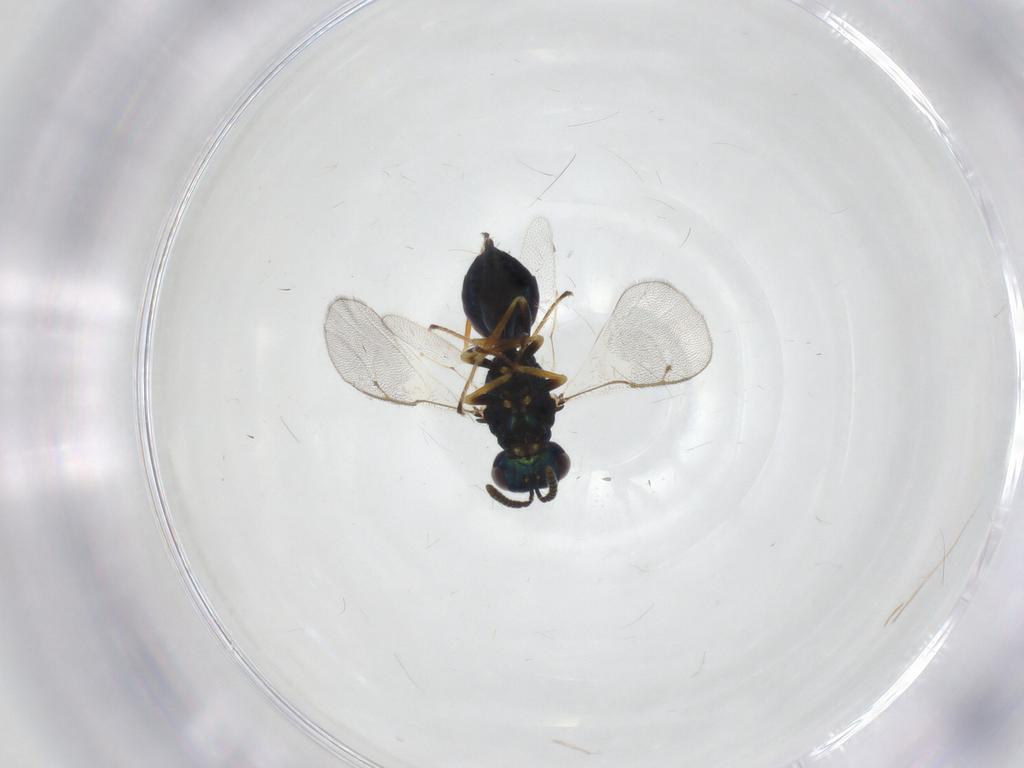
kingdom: Animalia
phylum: Arthropoda
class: Insecta
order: Hymenoptera
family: Pteromalidae
